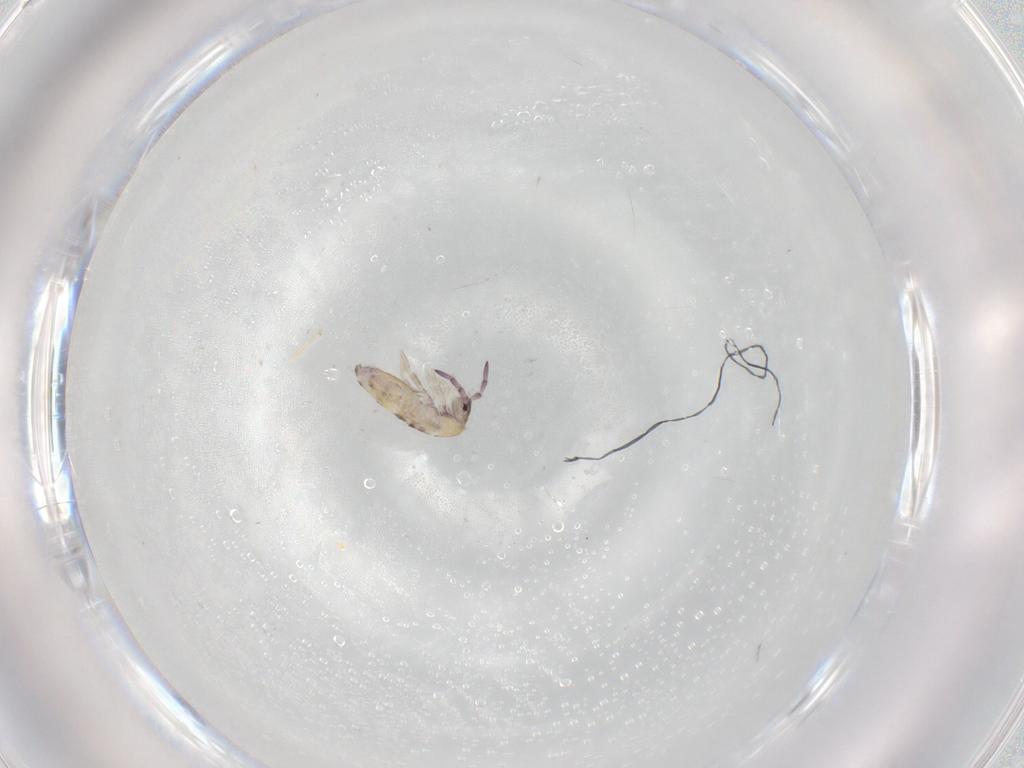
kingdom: Animalia
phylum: Arthropoda
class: Collembola
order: Entomobryomorpha
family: Entomobryidae
